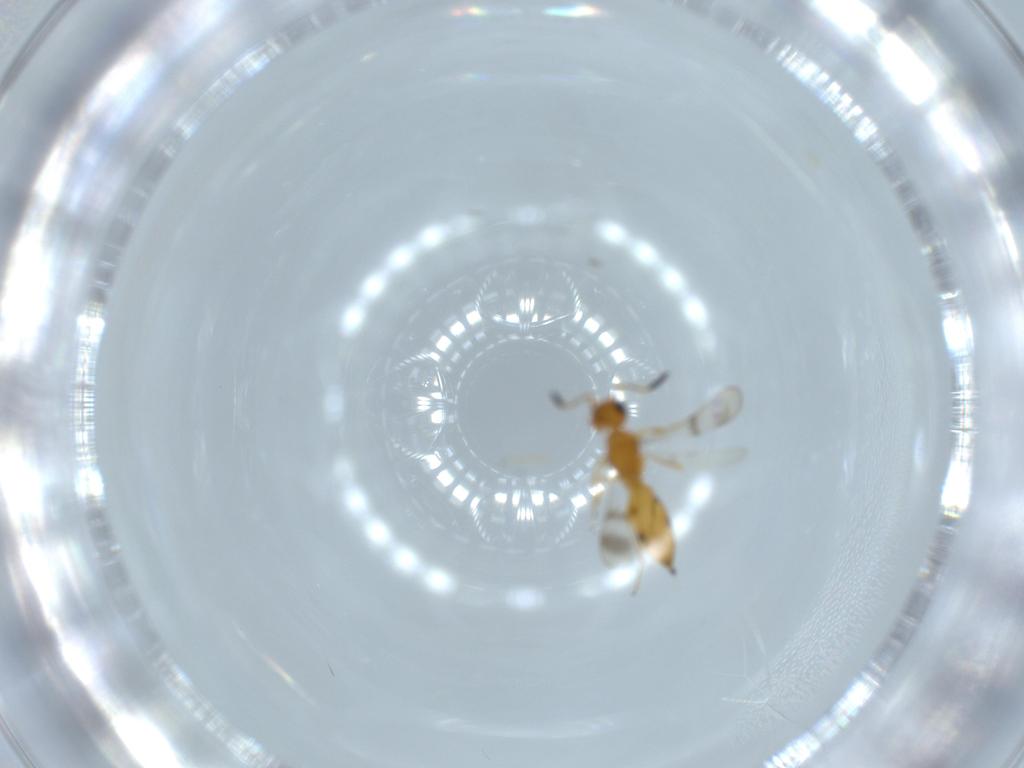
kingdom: Animalia
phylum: Arthropoda
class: Insecta
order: Hymenoptera
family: Scelionidae
